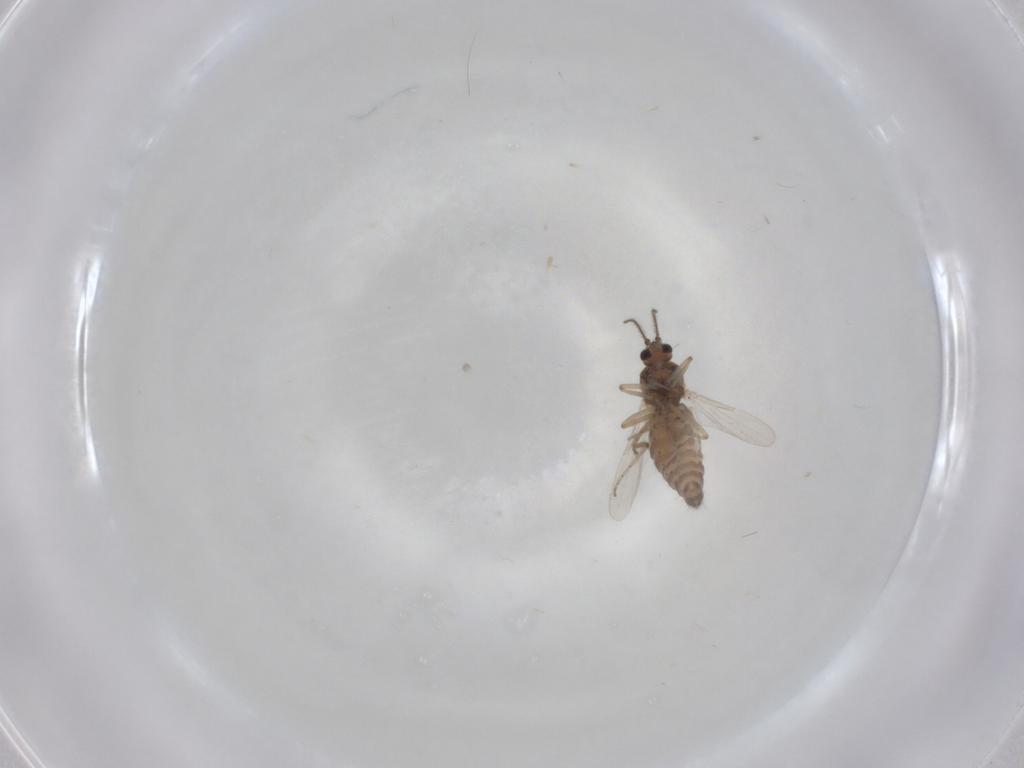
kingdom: Animalia
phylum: Arthropoda
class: Insecta
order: Diptera
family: Ceratopogonidae
